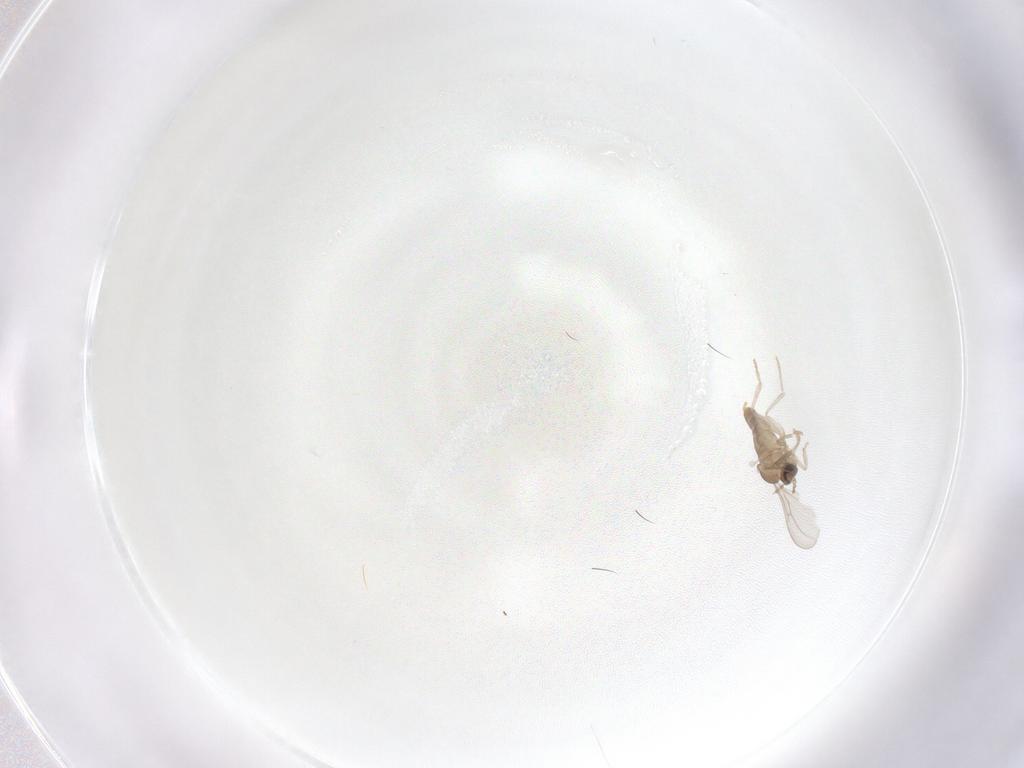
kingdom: Animalia
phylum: Arthropoda
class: Insecta
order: Diptera
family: Cecidomyiidae
